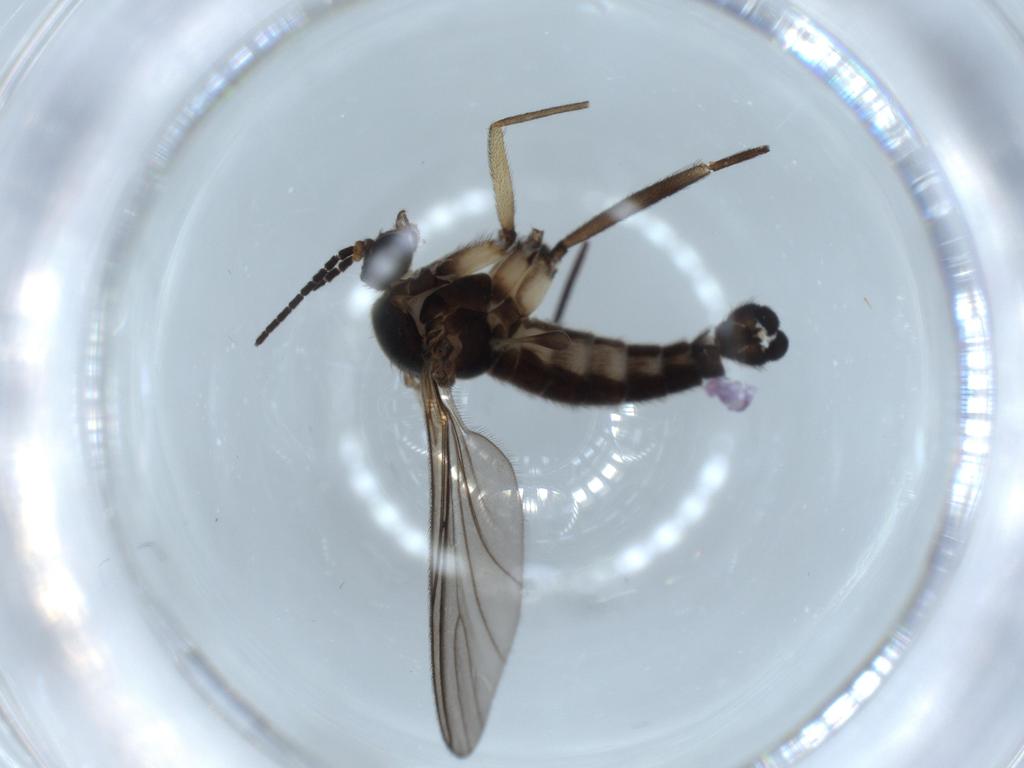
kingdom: Animalia
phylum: Arthropoda
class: Insecta
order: Diptera
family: Sciaridae
